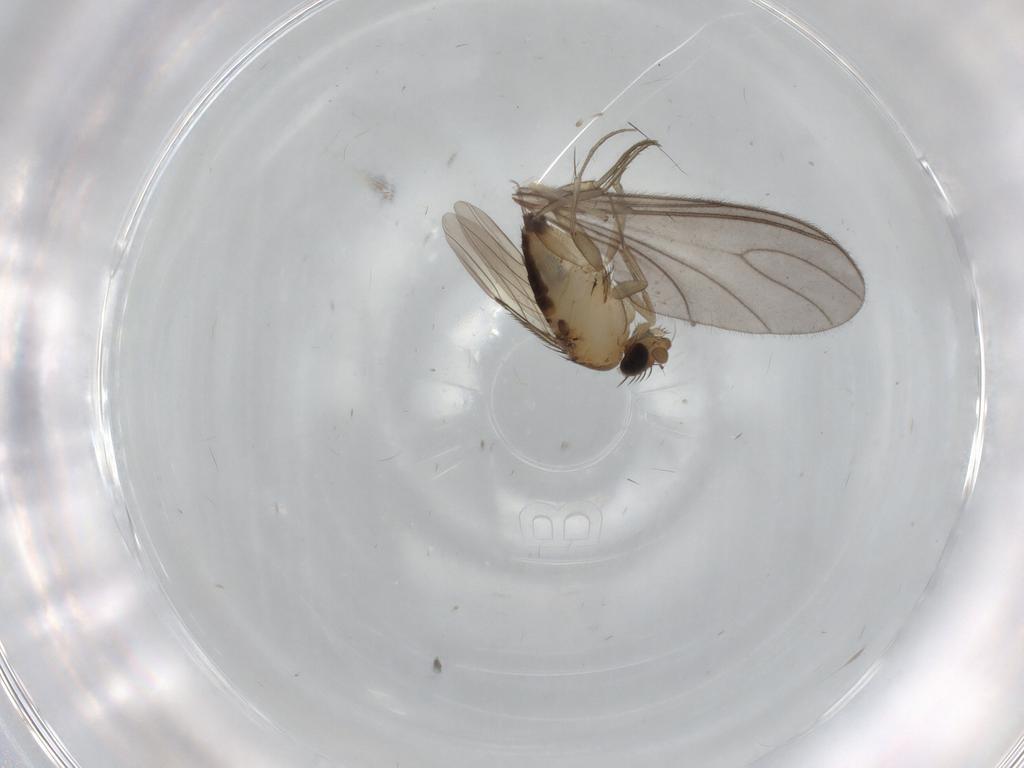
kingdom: Animalia
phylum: Arthropoda
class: Insecta
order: Diptera
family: Phoridae
